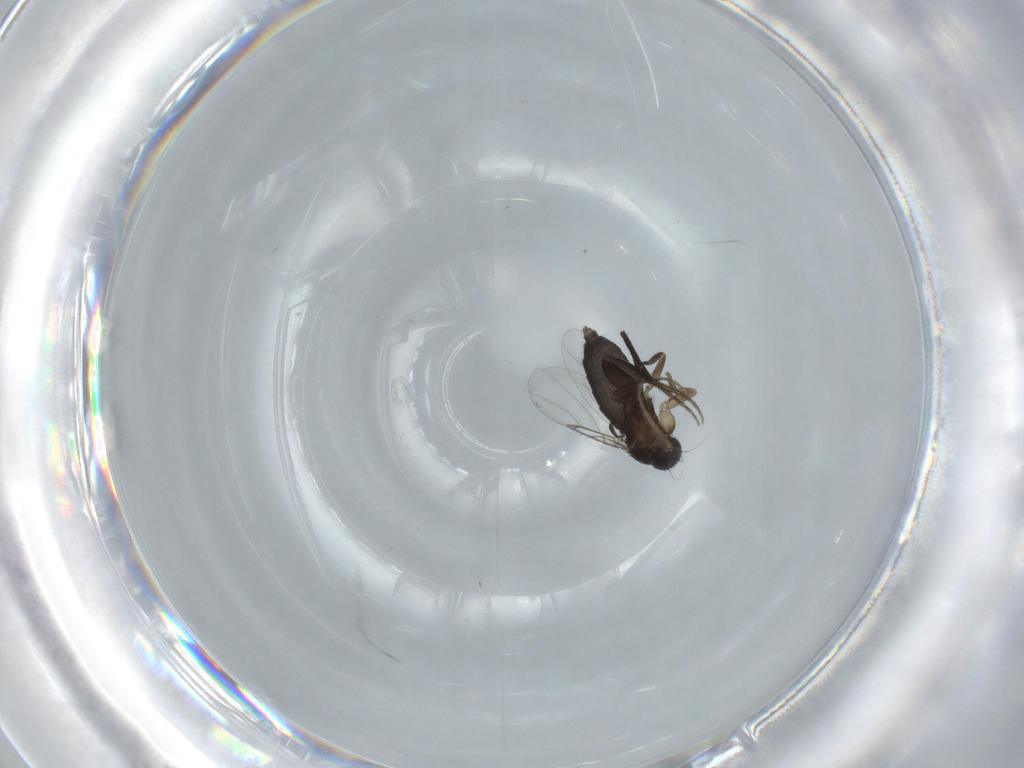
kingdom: Animalia
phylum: Arthropoda
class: Insecta
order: Diptera
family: Phoridae
